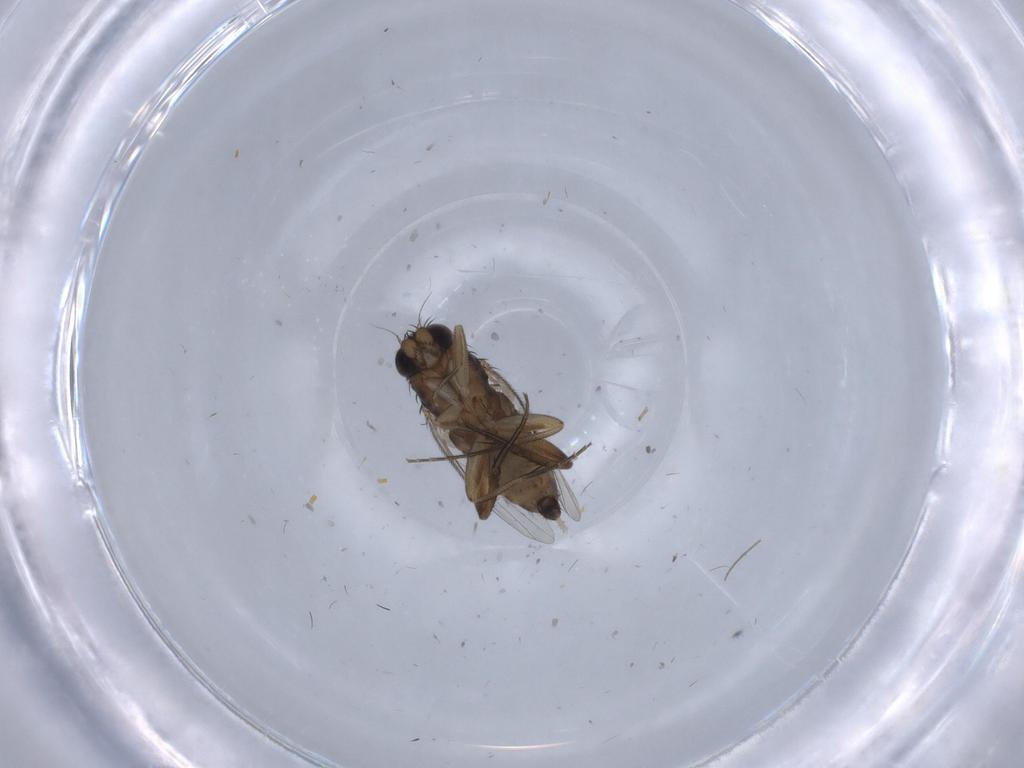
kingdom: Animalia
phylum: Arthropoda
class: Insecta
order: Diptera
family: Phoridae
